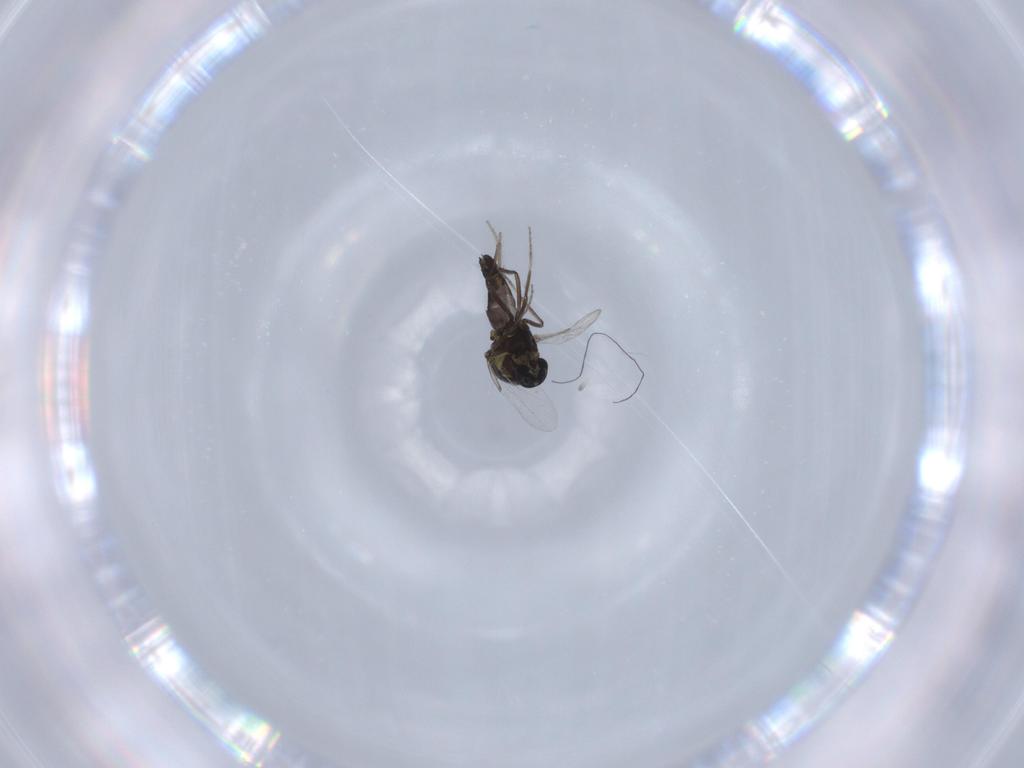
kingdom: Animalia
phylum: Arthropoda
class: Insecta
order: Diptera
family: Ceratopogonidae
